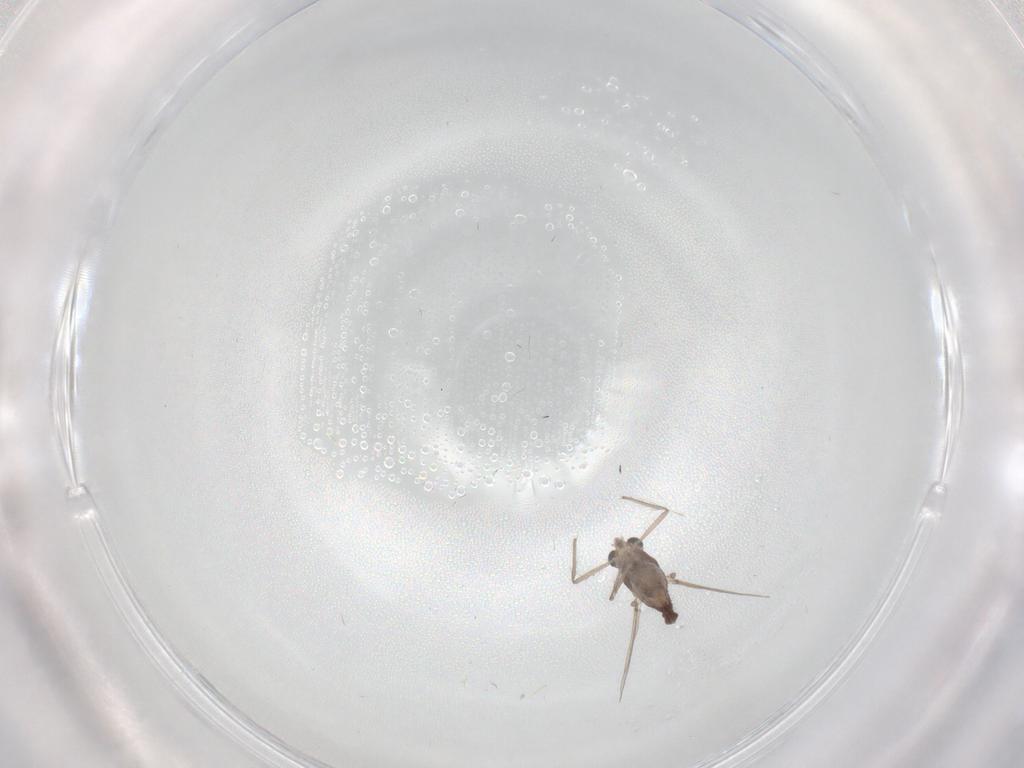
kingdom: Animalia
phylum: Arthropoda
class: Insecta
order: Diptera
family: Chironomidae
